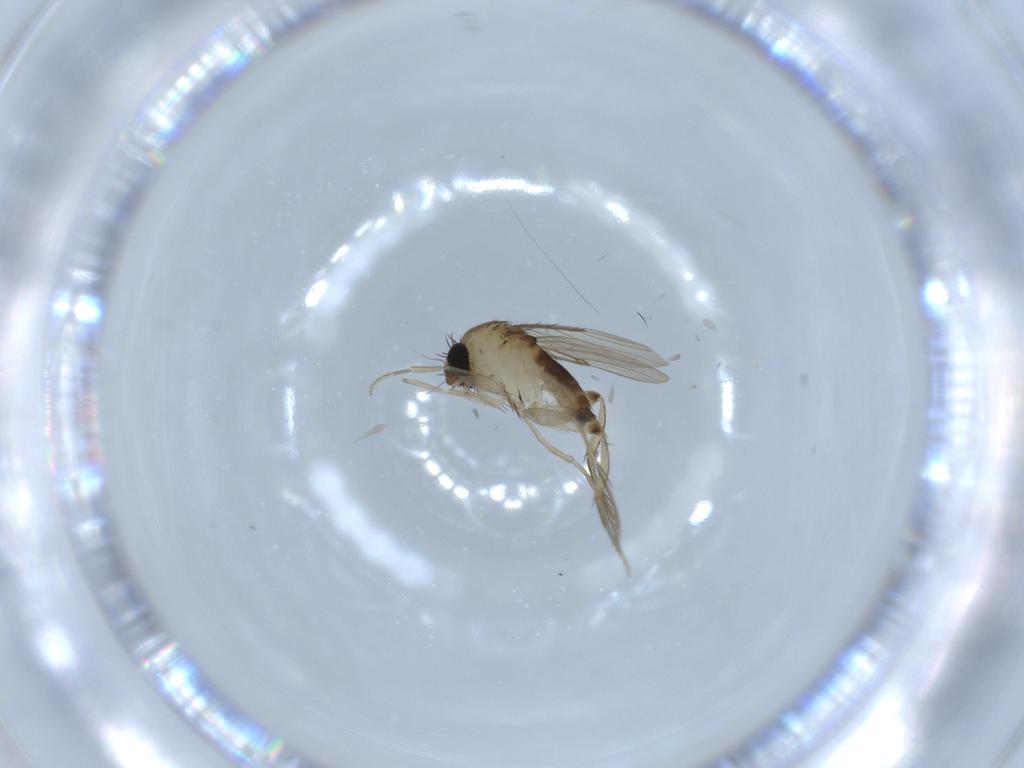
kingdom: Animalia
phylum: Arthropoda
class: Insecta
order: Diptera
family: Phoridae
